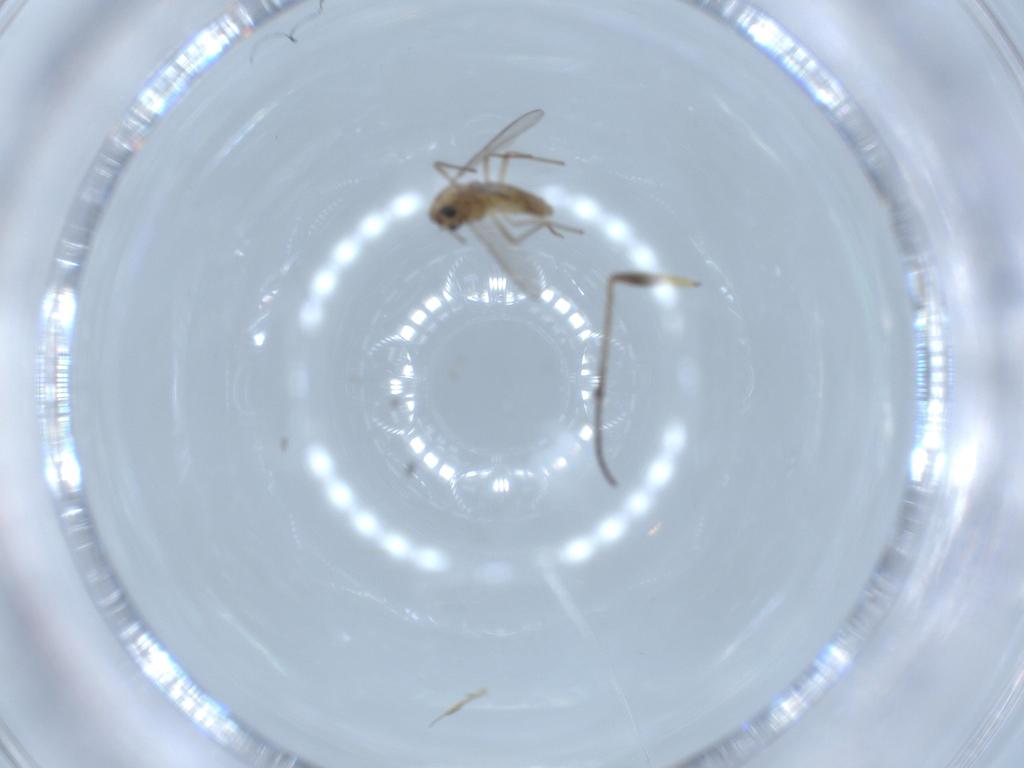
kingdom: Animalia
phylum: Arthropoda
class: Insecta
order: Diptera
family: Chironomidae
